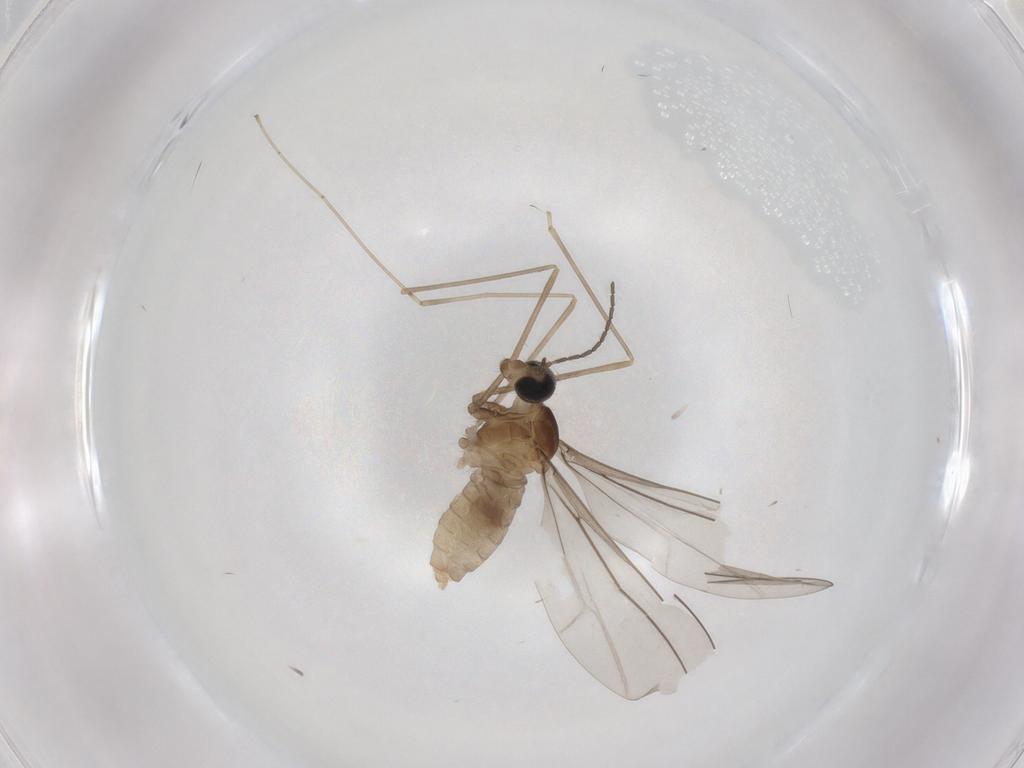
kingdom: Animalia
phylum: Arthropoda
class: Insecta
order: Diptera
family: Cecidomyiidae
